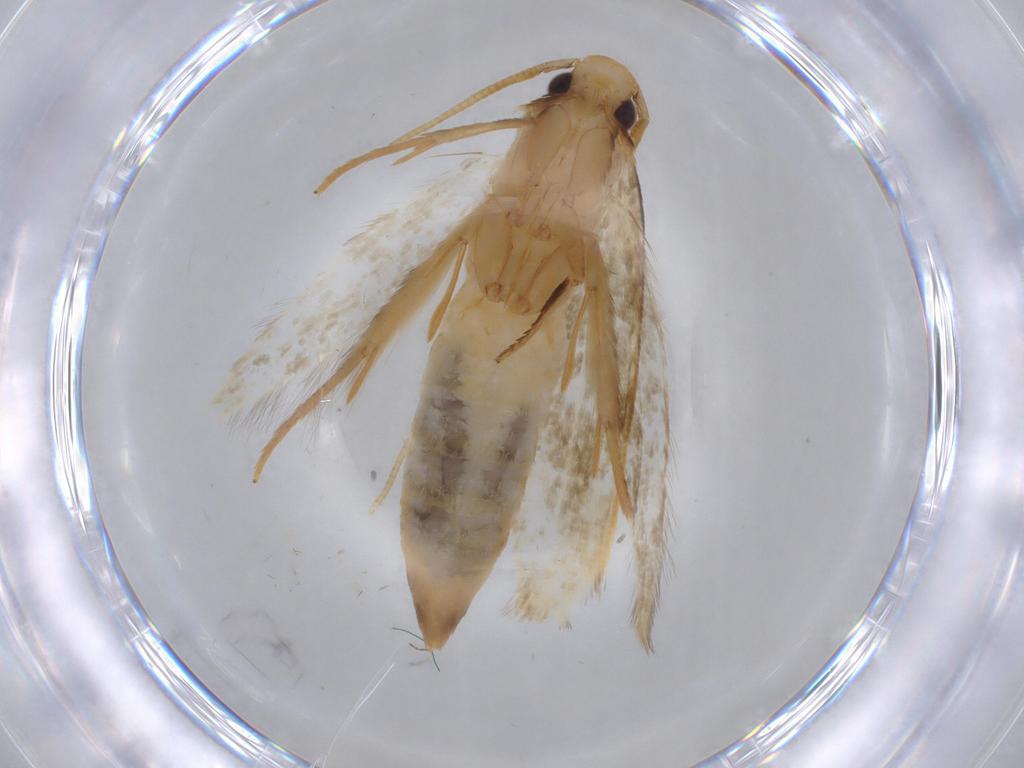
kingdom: Animalia
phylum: Arthropoda
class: Insecta
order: Lepidoptera
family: Tineidae
